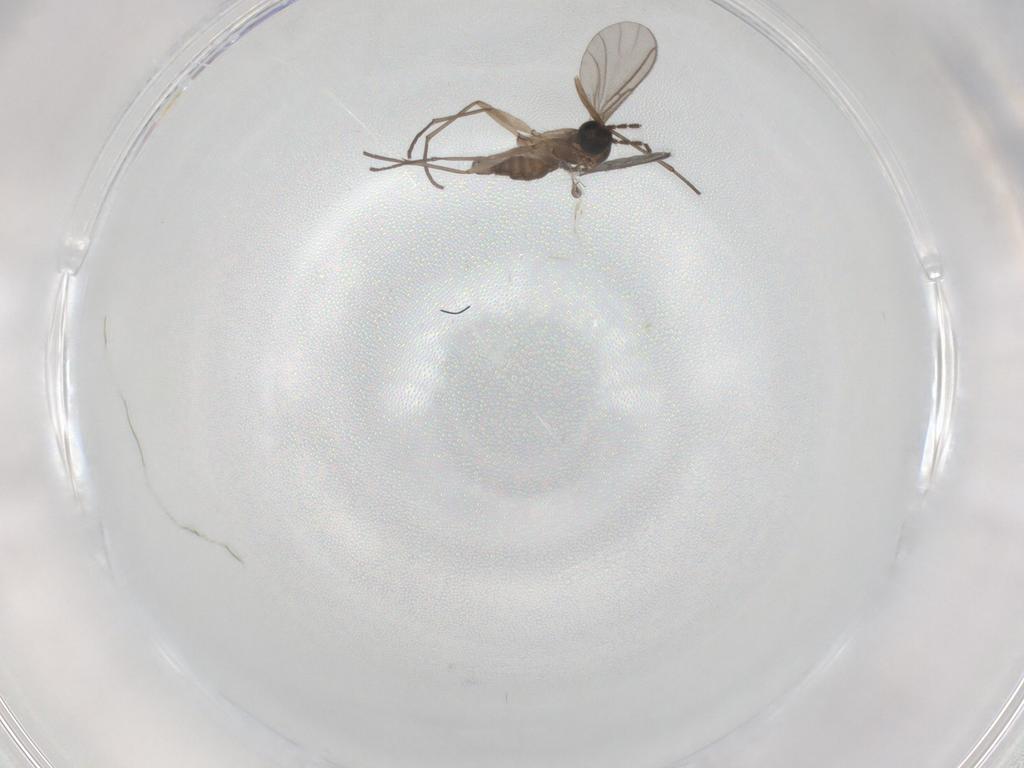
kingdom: Animalia
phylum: Arthropoda
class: Insecta
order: Diptera
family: Sciaridae
